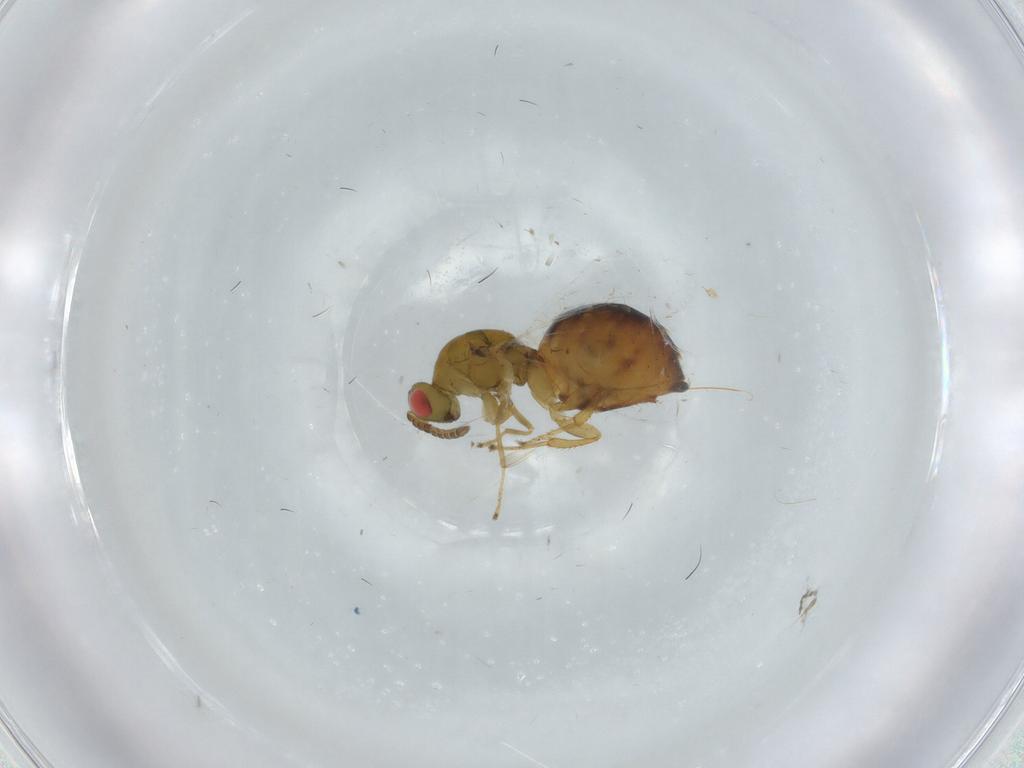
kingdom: Animalia
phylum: Arthropoda
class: Insecta
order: Hymenoptera
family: Agaonidae
